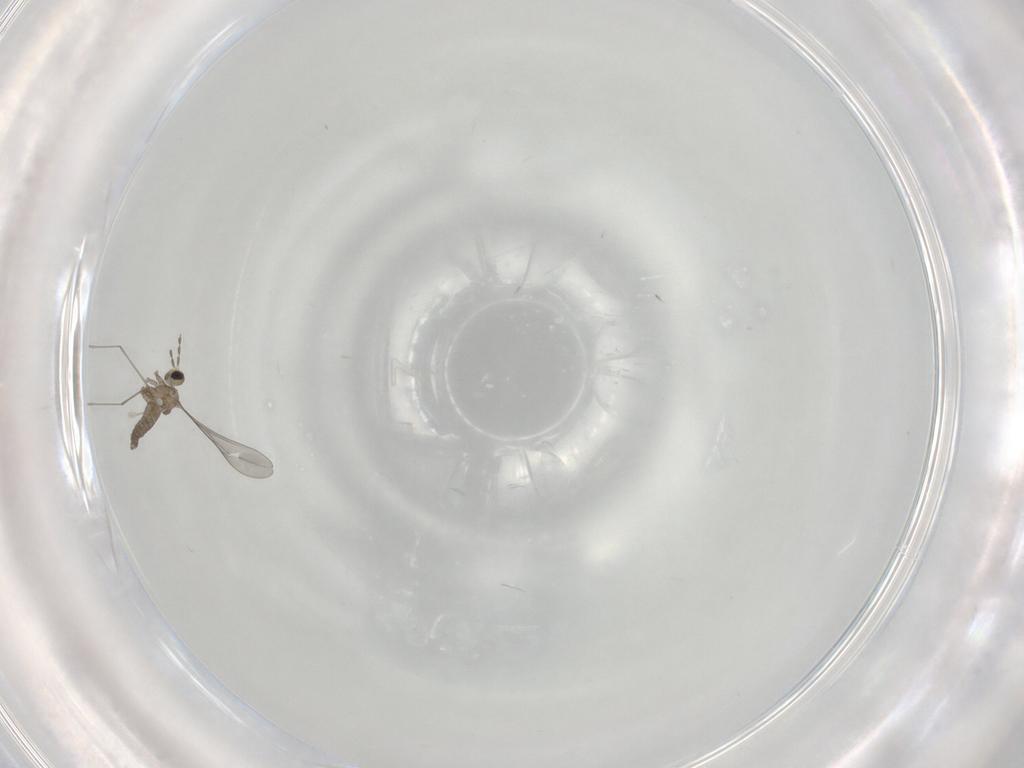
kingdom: Animalia
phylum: Arthropoda
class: Insecta
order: Diptera
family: Cecidomyiidae
